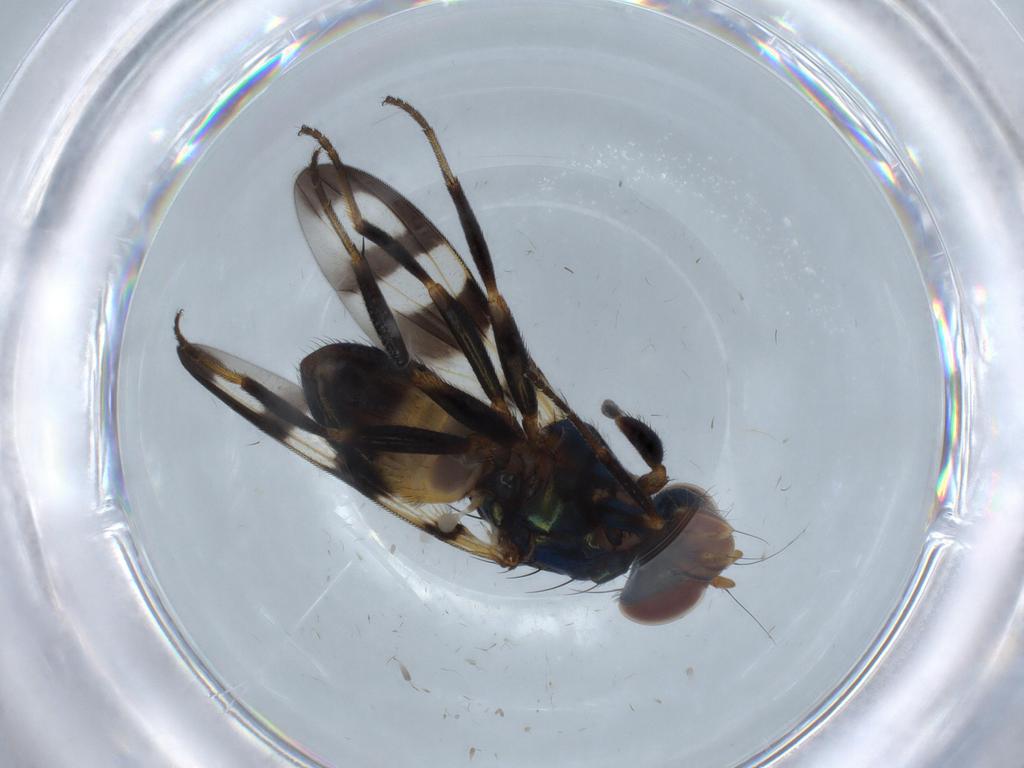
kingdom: Animalia
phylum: Arthropoda
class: Insecta
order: Diptera
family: Ulidiidae
